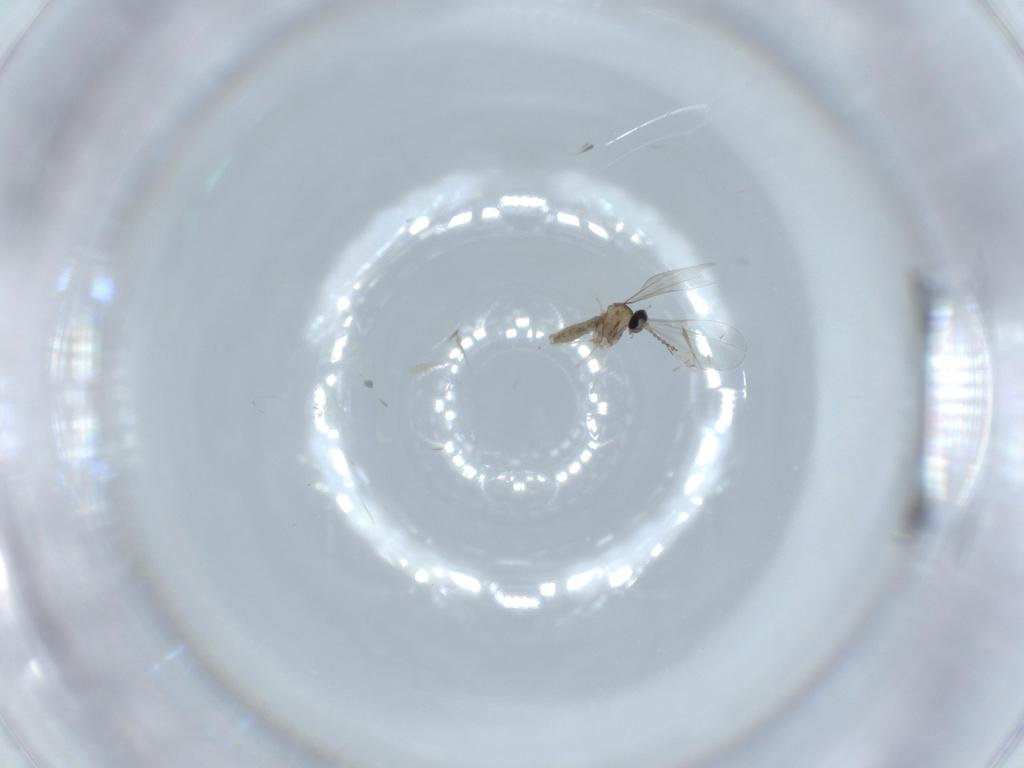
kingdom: Animalia
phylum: Arthropoda
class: Insecta
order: Diptera
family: Cecidomyiidae
